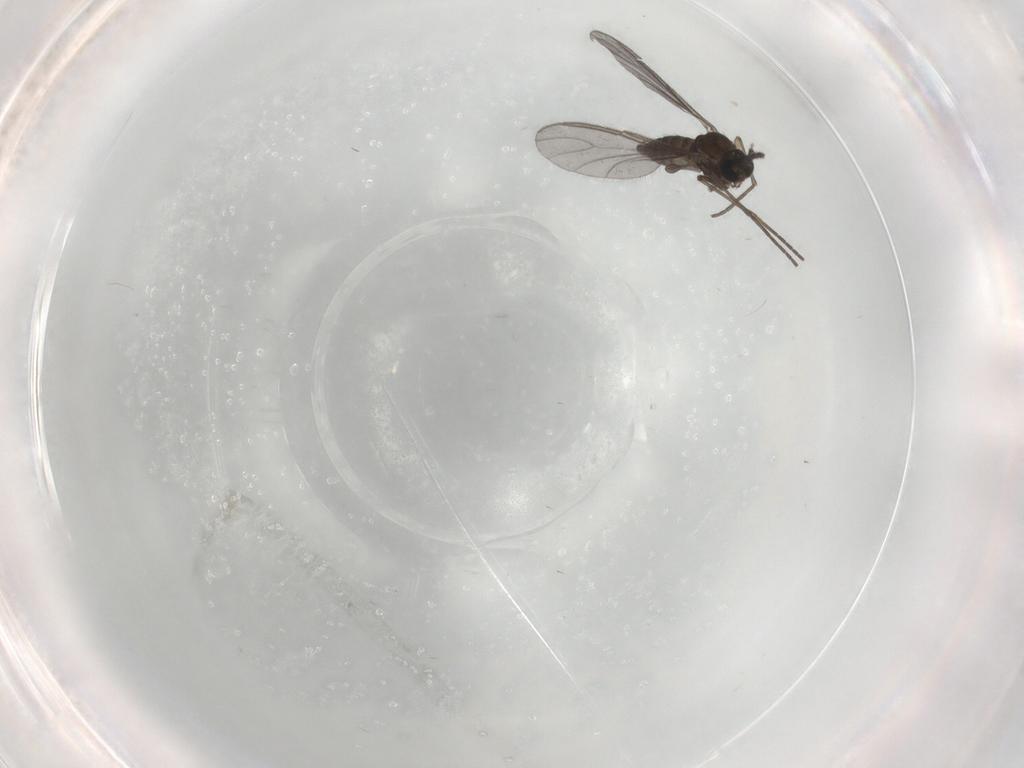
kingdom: Animalia
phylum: Arthropoda
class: Insecta
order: Diptera
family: Sciaridae
